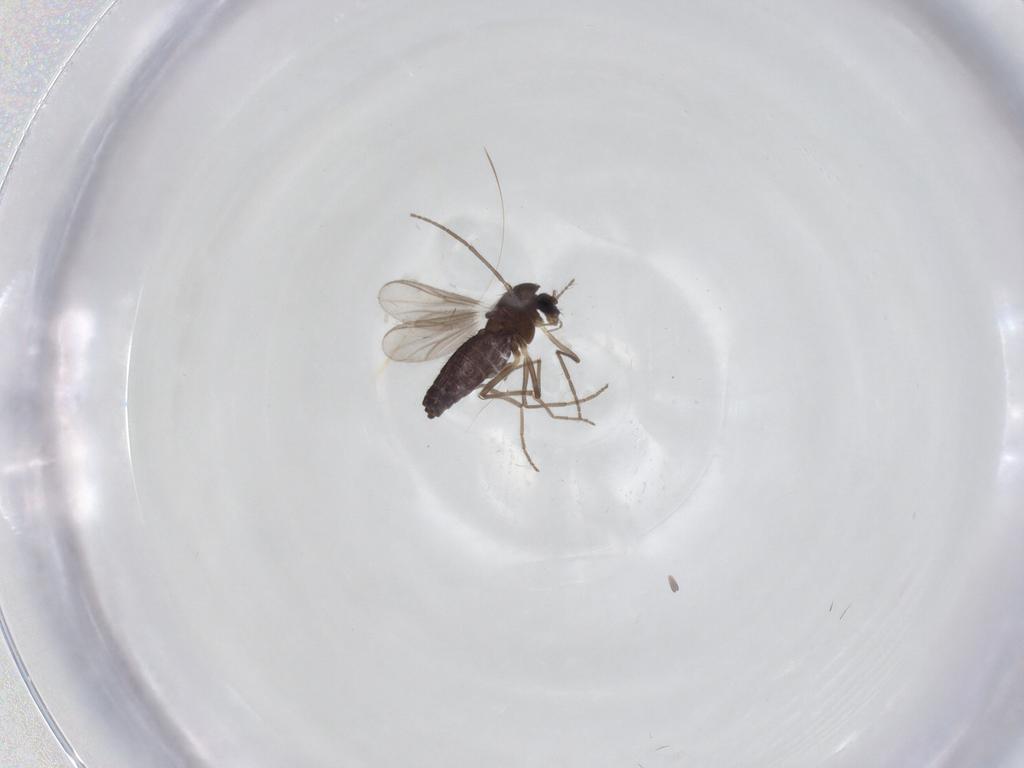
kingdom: Animalia
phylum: Arthropoda
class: Insecta
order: Diptera
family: Chironomidae
